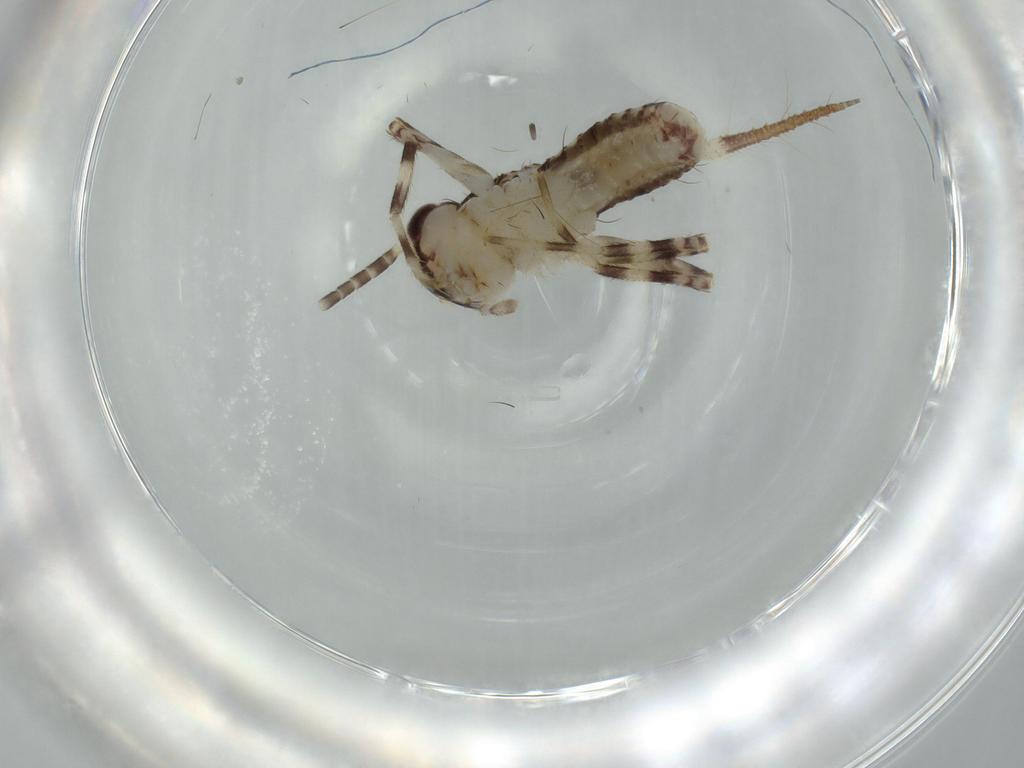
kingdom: Animalia
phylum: Arthropoda
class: Insecta
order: Orthoptera
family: Gryllidae
